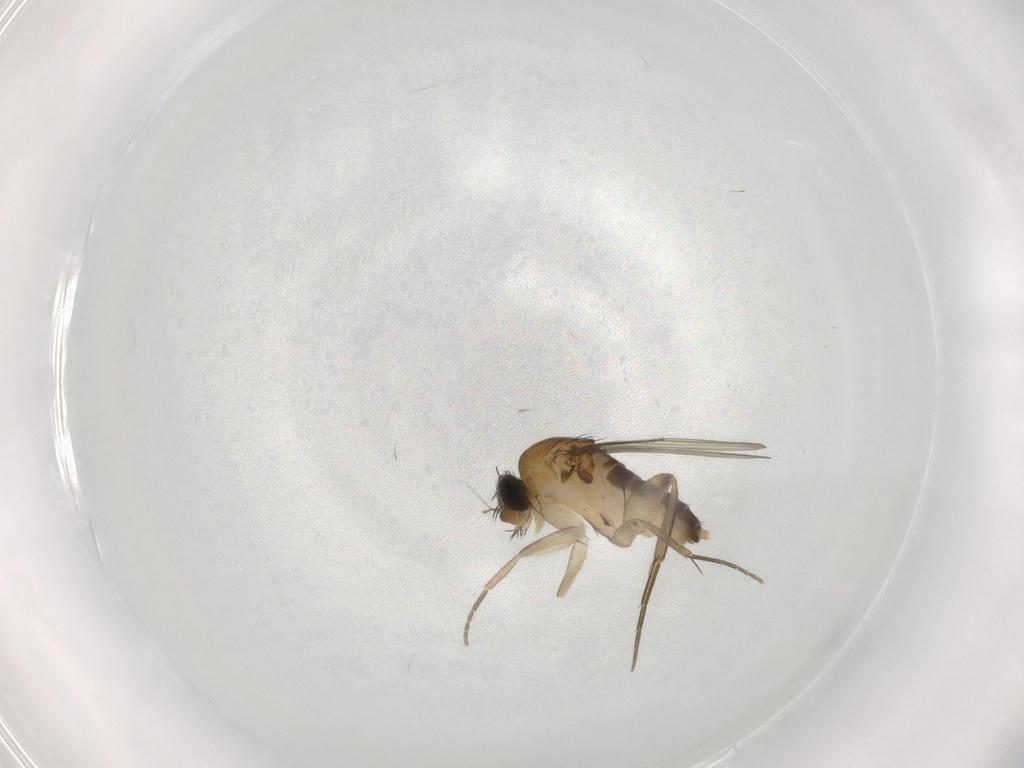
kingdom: Animalia
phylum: Arthropoda
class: Insecta
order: Diptera
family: Phoridae
